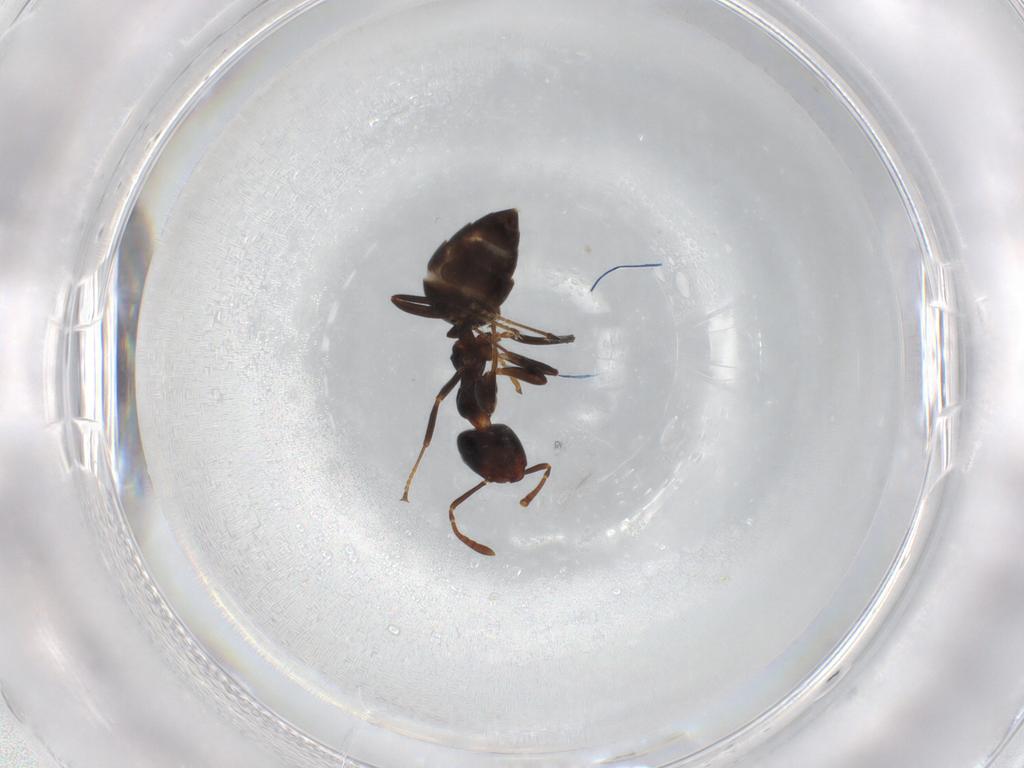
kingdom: Animalia
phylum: Arthropoda
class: Insecta
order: Hymenoptera
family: Formicidae
